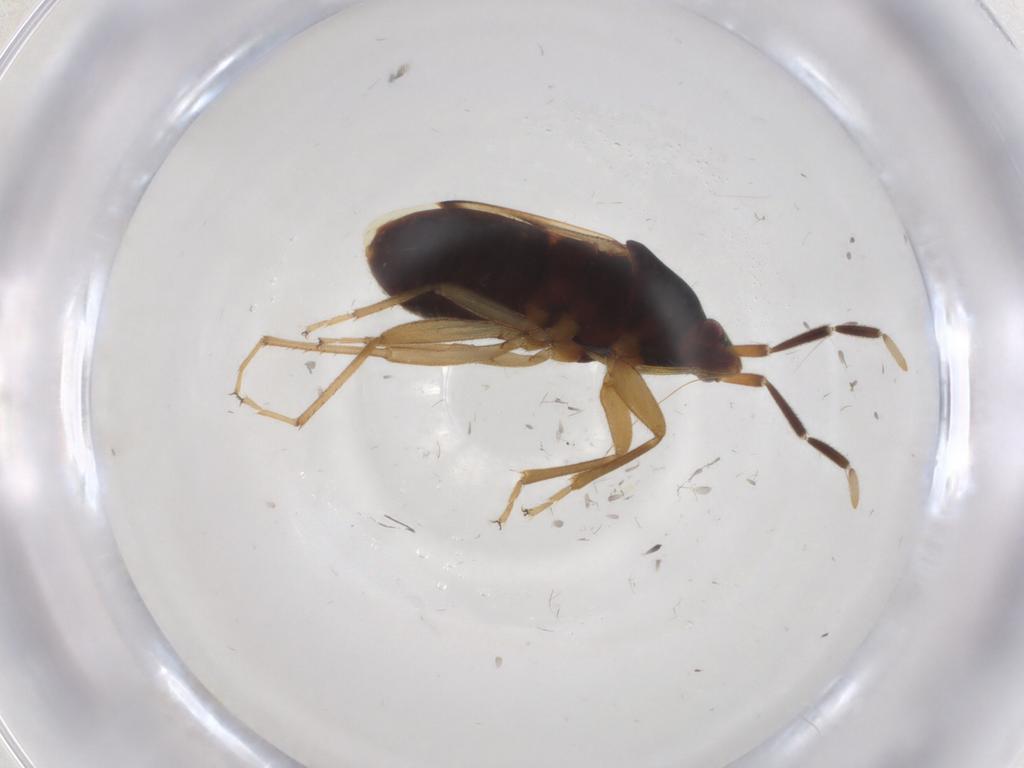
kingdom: Animalia
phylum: Arthropoda
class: Insecta
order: Hemiptera
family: Rhyparochromidae
